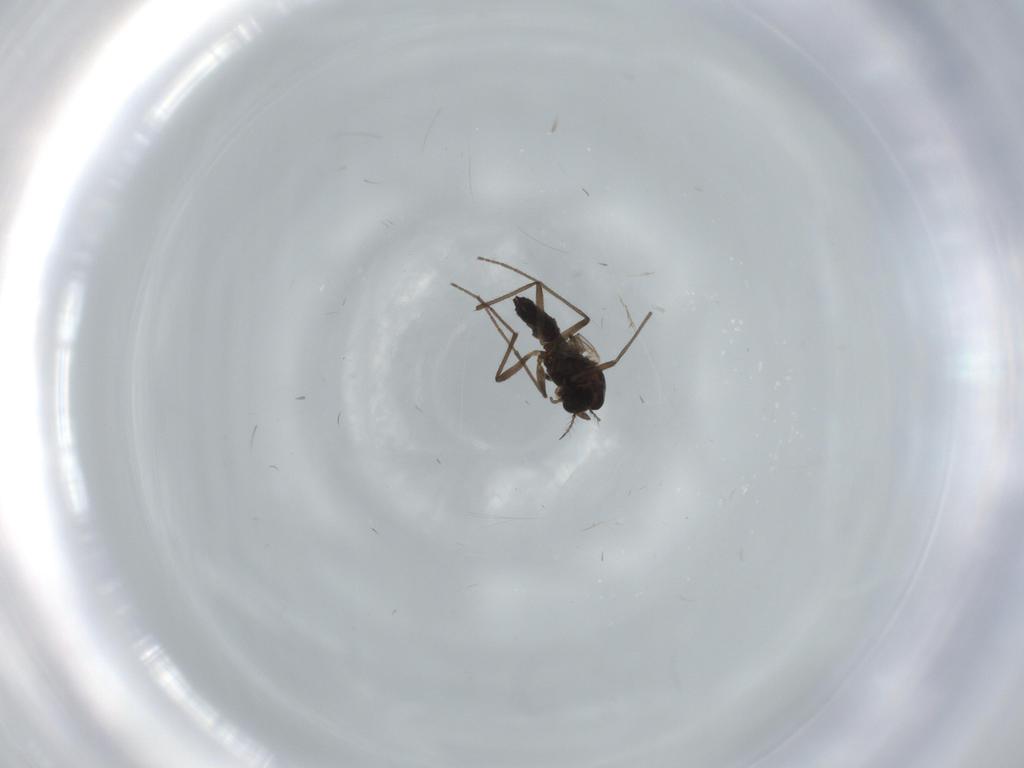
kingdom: Animalia
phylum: Arthropoda
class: Insecta
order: Diptera
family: Chironomidae
